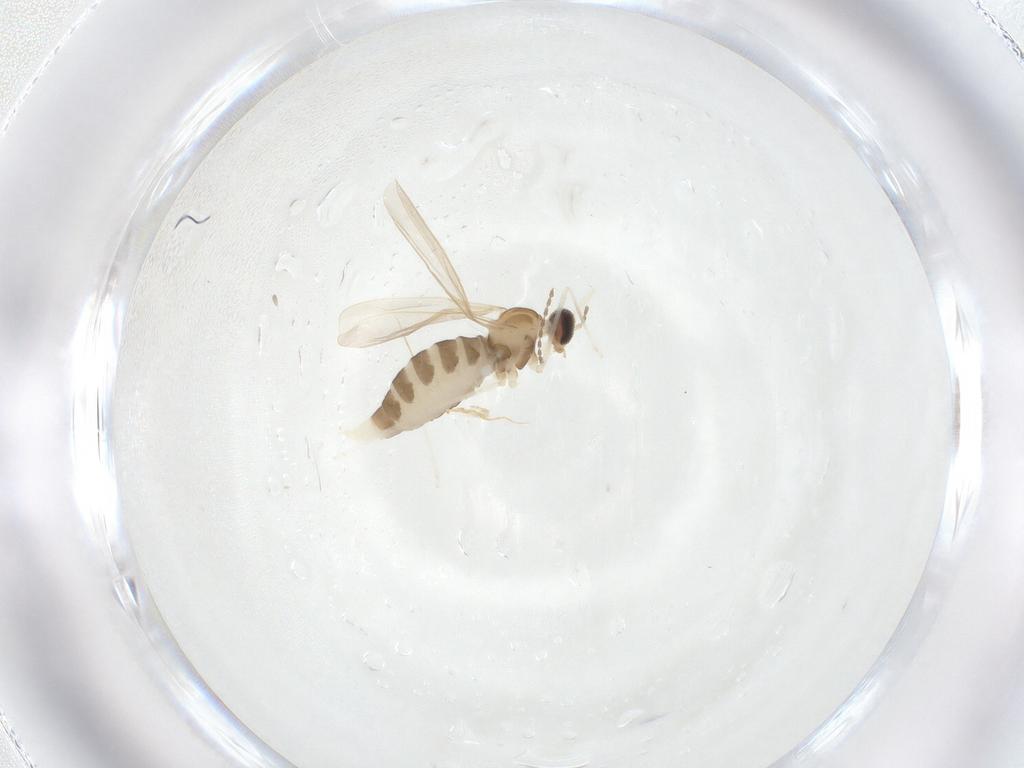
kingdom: Animalia
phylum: Arthropoda
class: Insecta
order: Diptera
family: Cecidomyiidae
